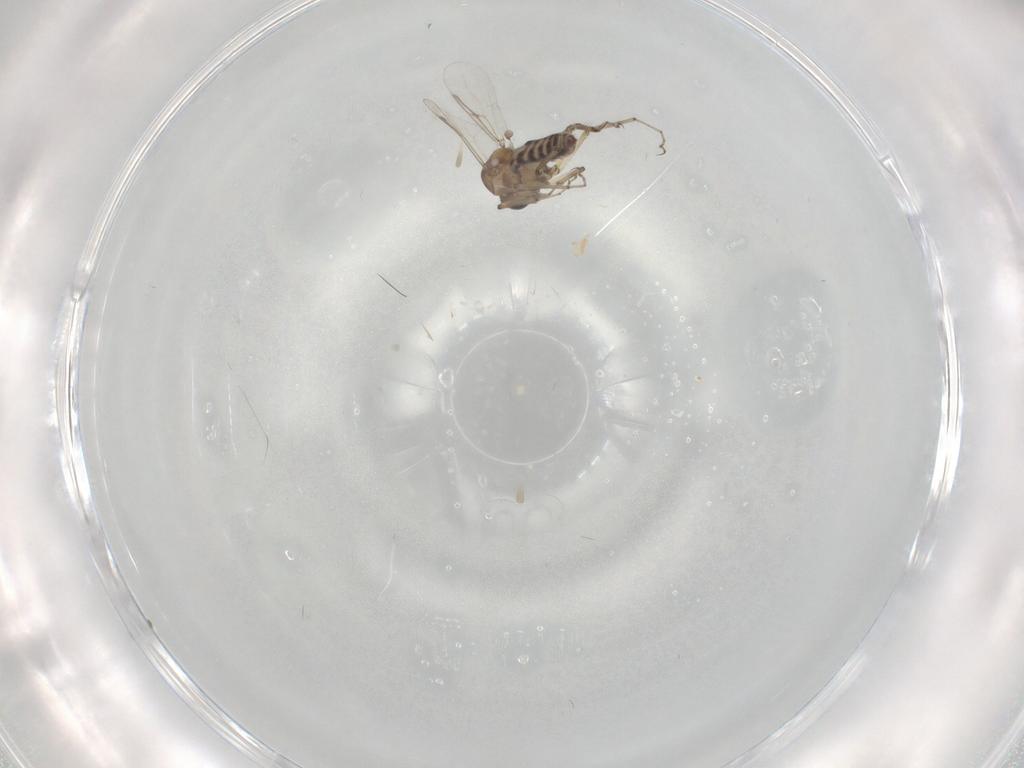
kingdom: Animalia
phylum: Arthropoda
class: Insecta
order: Diptera
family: Ceratopogonidae
